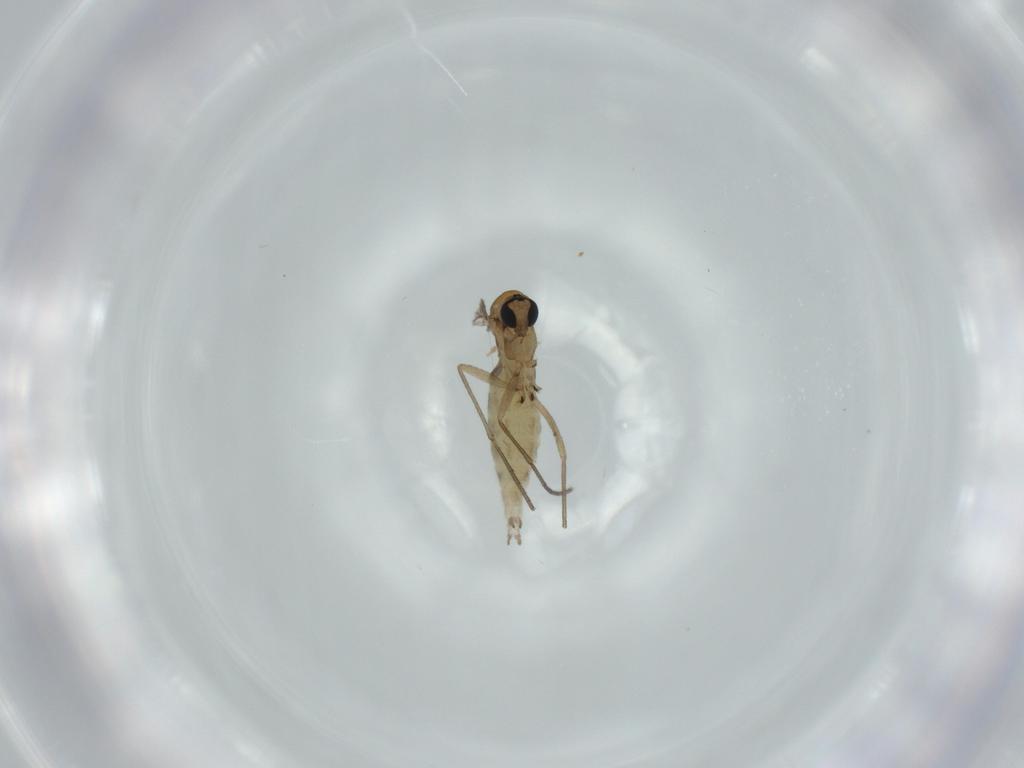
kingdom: Animalia
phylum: Arthropoda
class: Insecta
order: Diptera
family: Sciaridae
